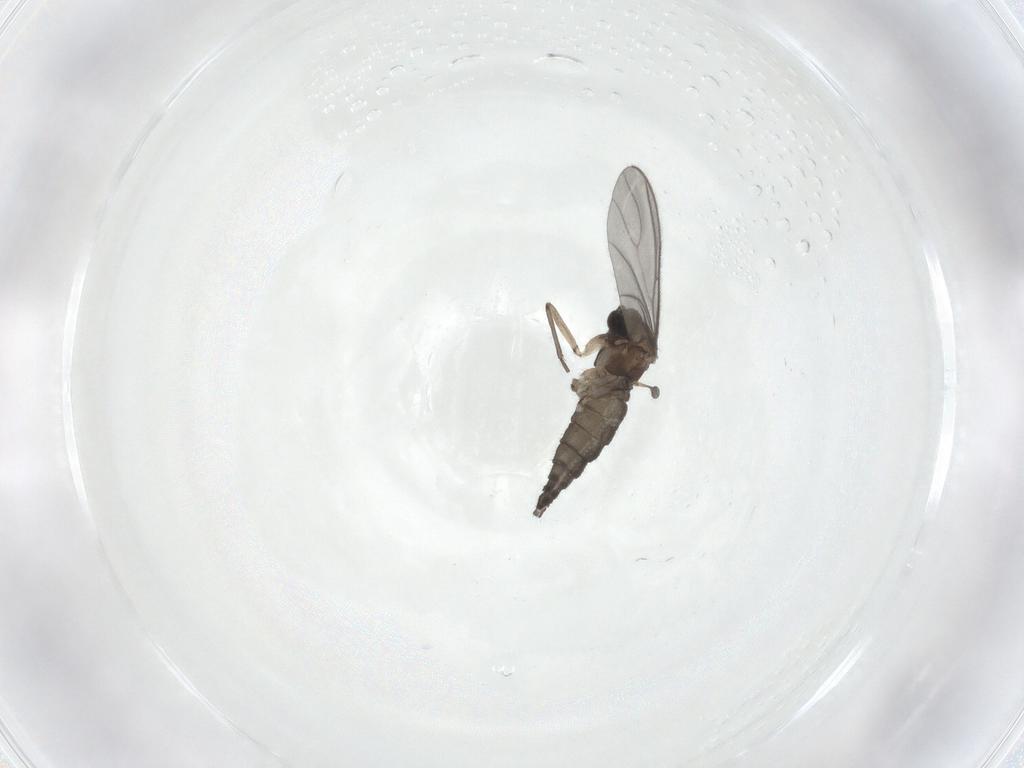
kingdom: Animalia
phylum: Arthropoda
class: Insecta
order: Diptera
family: Sciaridae
